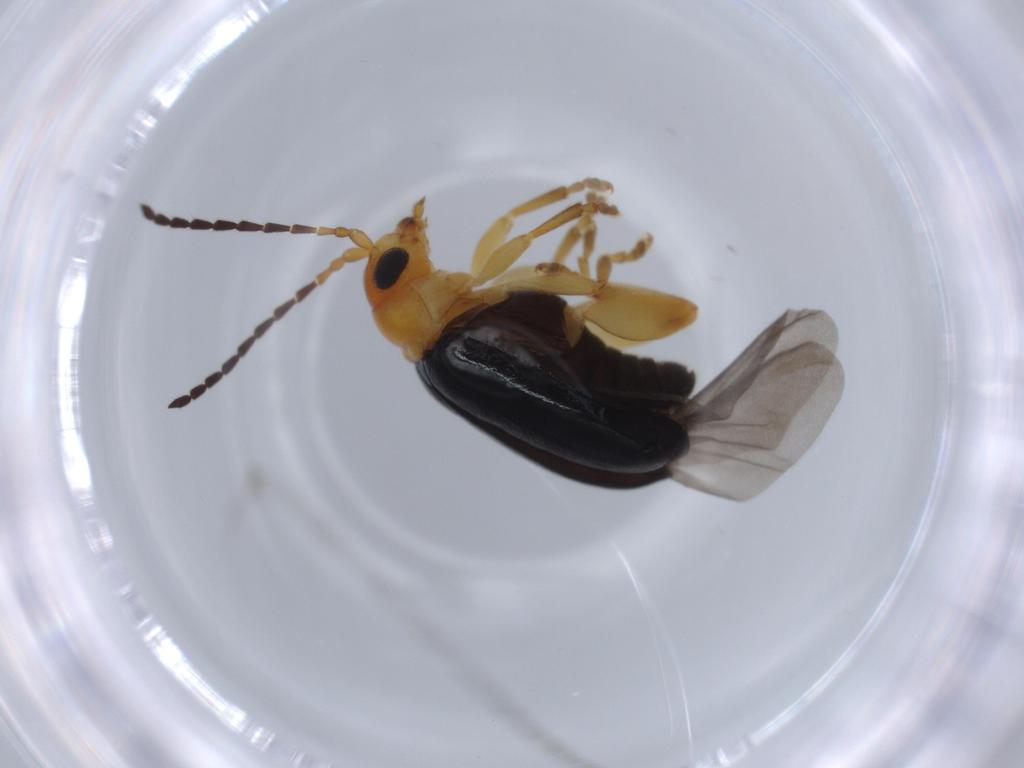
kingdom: Animalia
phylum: Arthropoda
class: Insecta
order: Coleoptera
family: Chrysomelidae
